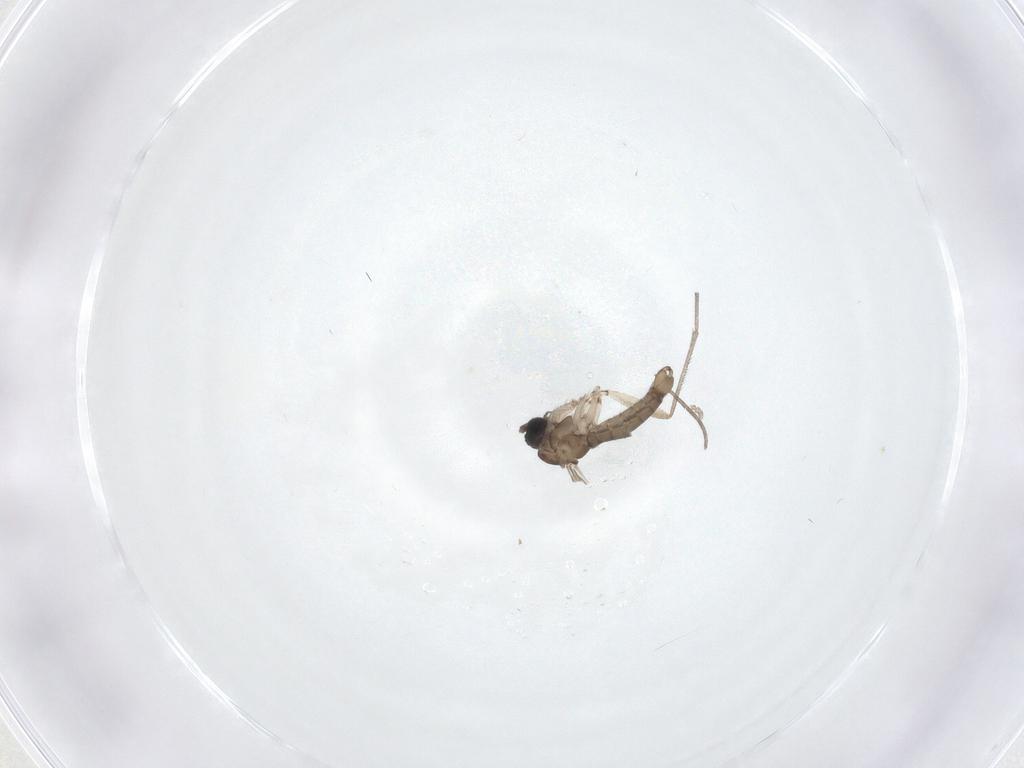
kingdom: Animalia
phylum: Arthropoda
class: Insecta
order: Diptera
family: Sciaridae
